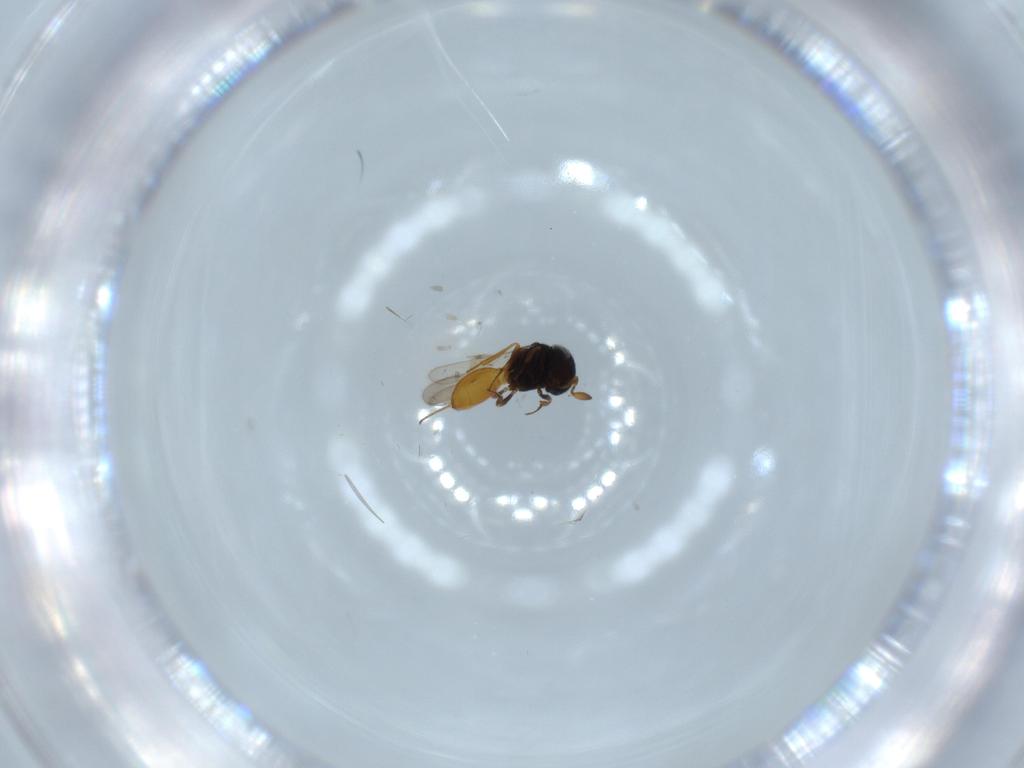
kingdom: Animalia
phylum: Arthropoda
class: Insecta
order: Hymenoptera
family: Scelionidae
